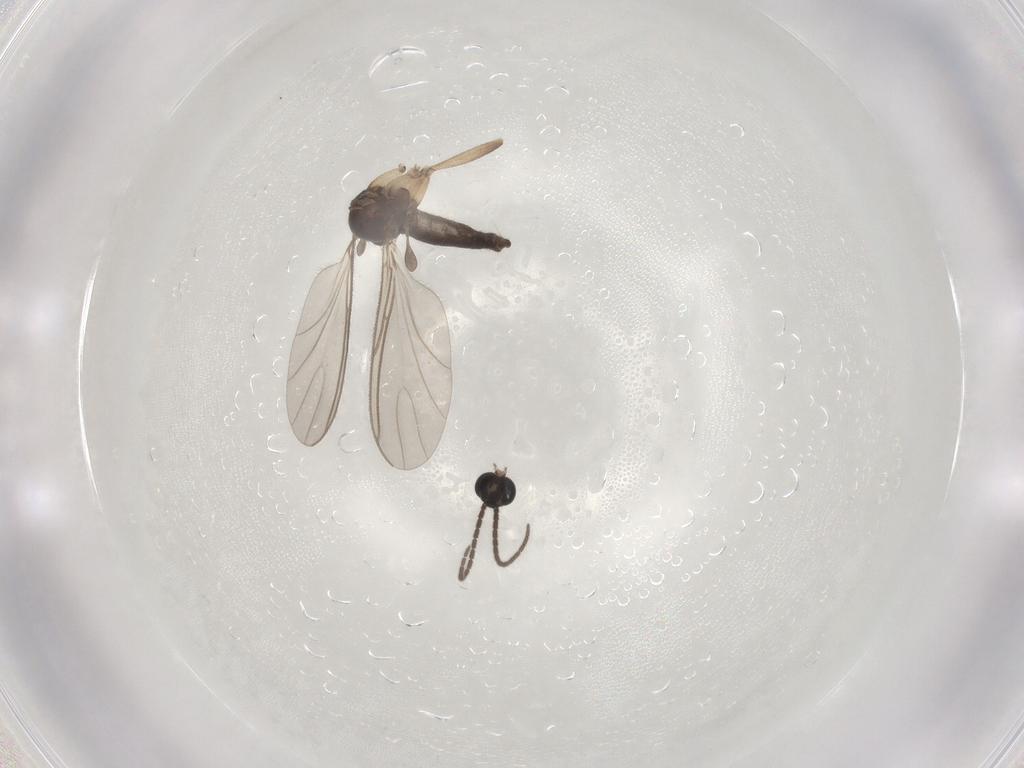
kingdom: Animalia
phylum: Arthropoda
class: Insecta
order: Diptera
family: Sciaridae
